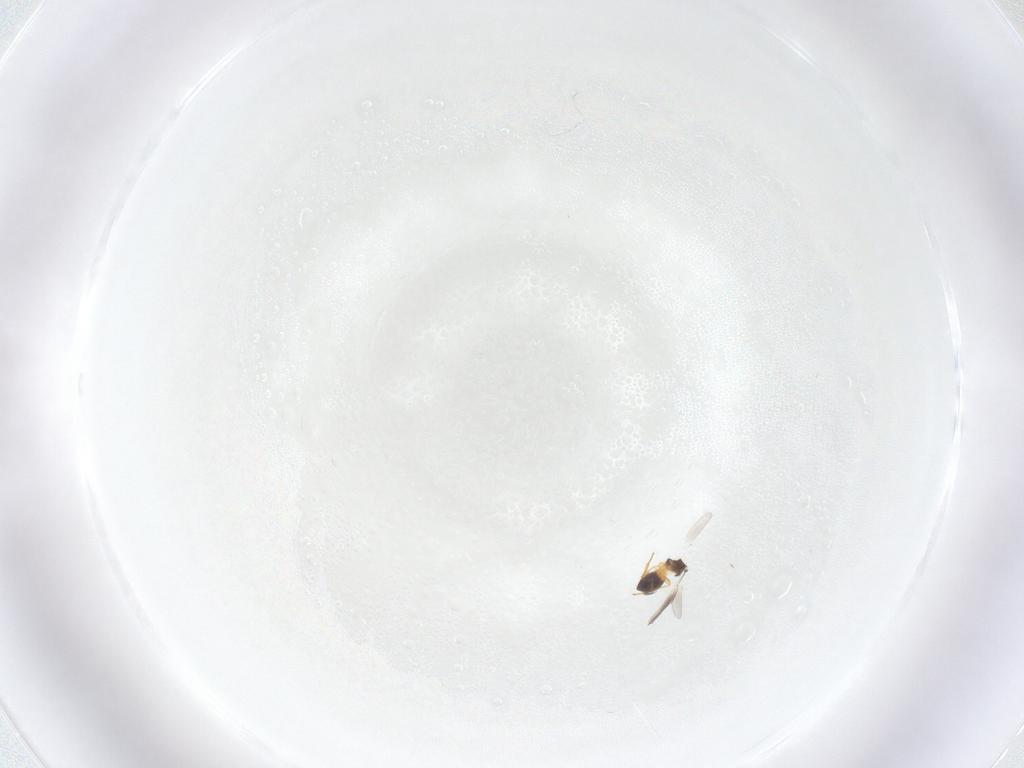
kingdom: Animalia
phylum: Arthropoda
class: Insecta
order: Hymenoptera
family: Platygastridae
